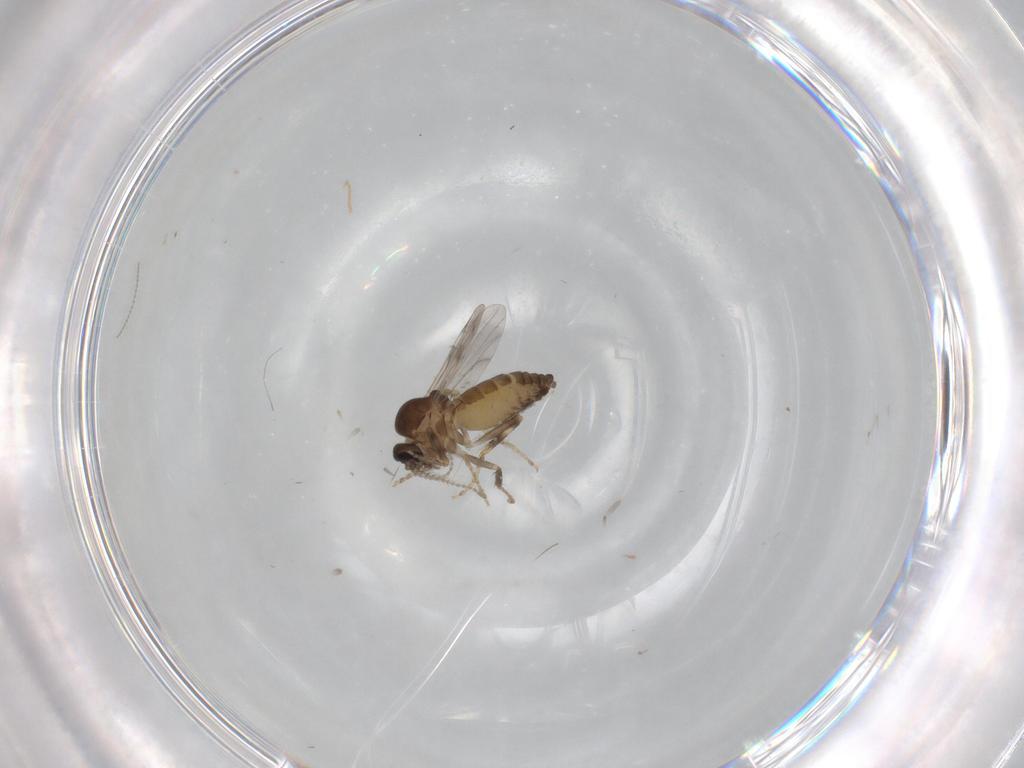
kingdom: Animalia
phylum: Arthropoda
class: Insecta
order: Diptera
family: Ceratopogonidae
